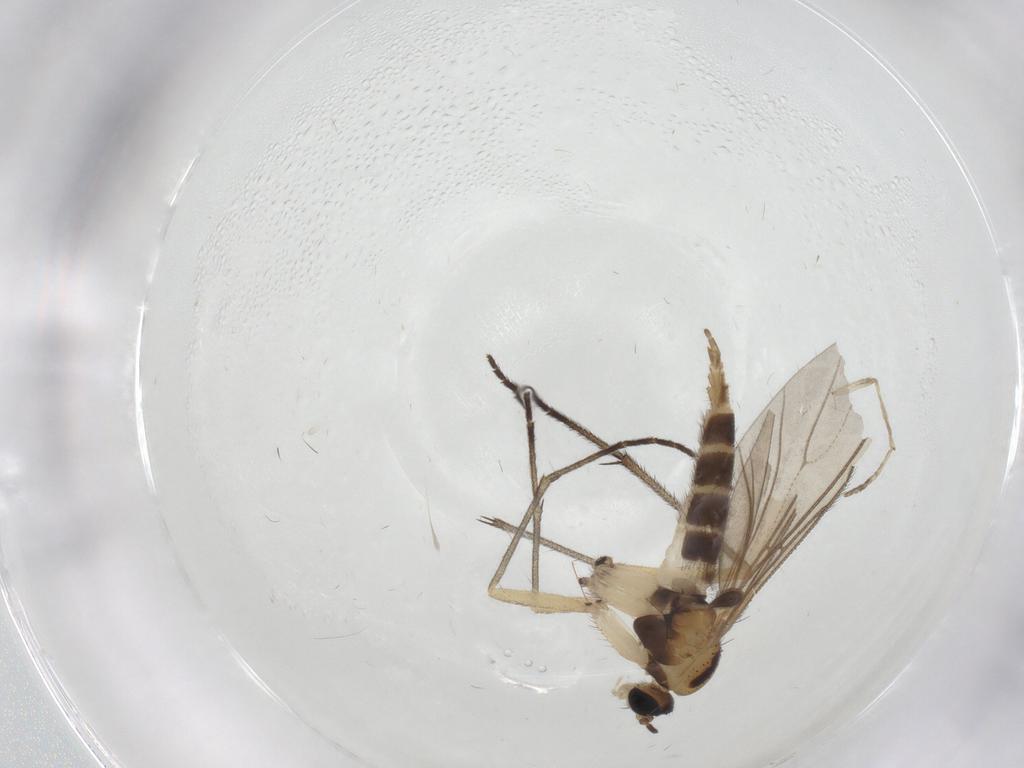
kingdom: Animalia
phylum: Arthropoda
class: Insecta
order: Diptera
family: Sciaridae
